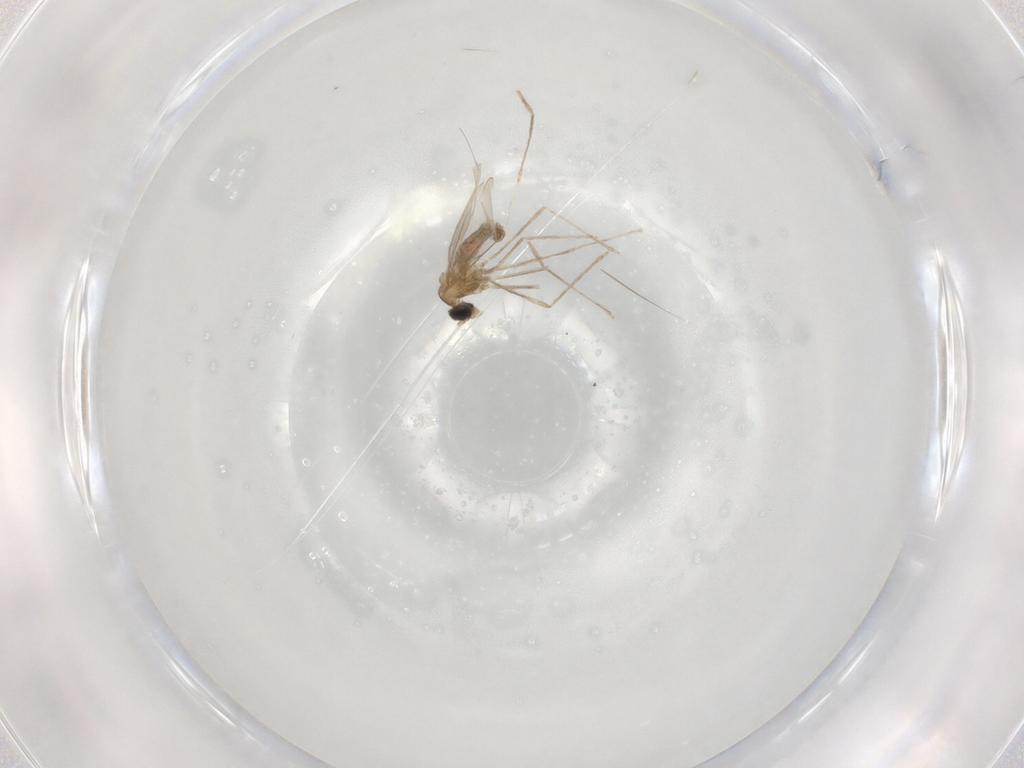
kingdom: Animalia
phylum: Arthropoda
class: Insecta
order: Diptera
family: Cecidomyiidae
